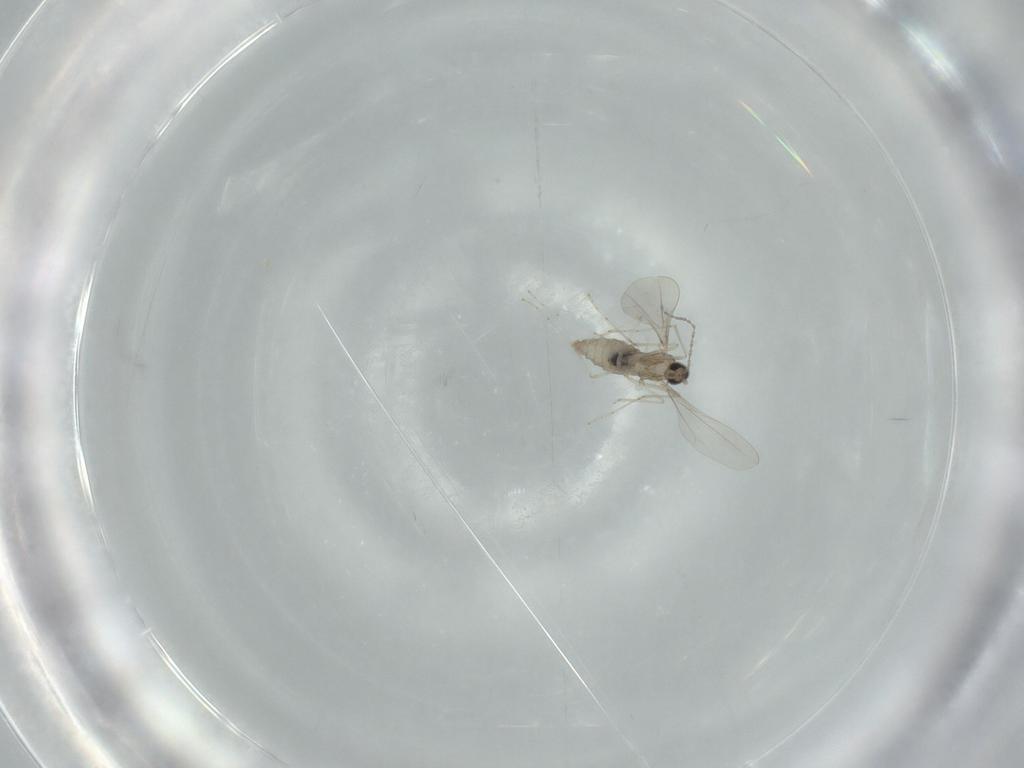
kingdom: Animalia
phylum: Arthropoda
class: Insecta
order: Diptera
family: Cecidomyiidae
